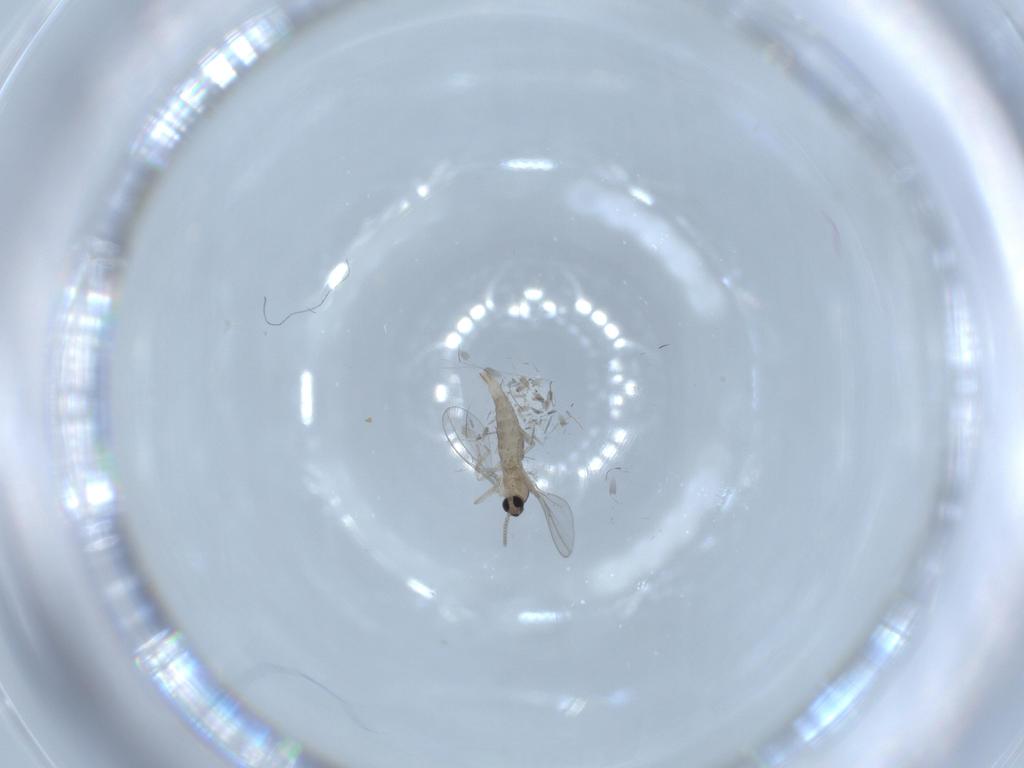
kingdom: Animalia
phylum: Arthropoda
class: Insecta
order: Diptera
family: Cecidomyiidae
